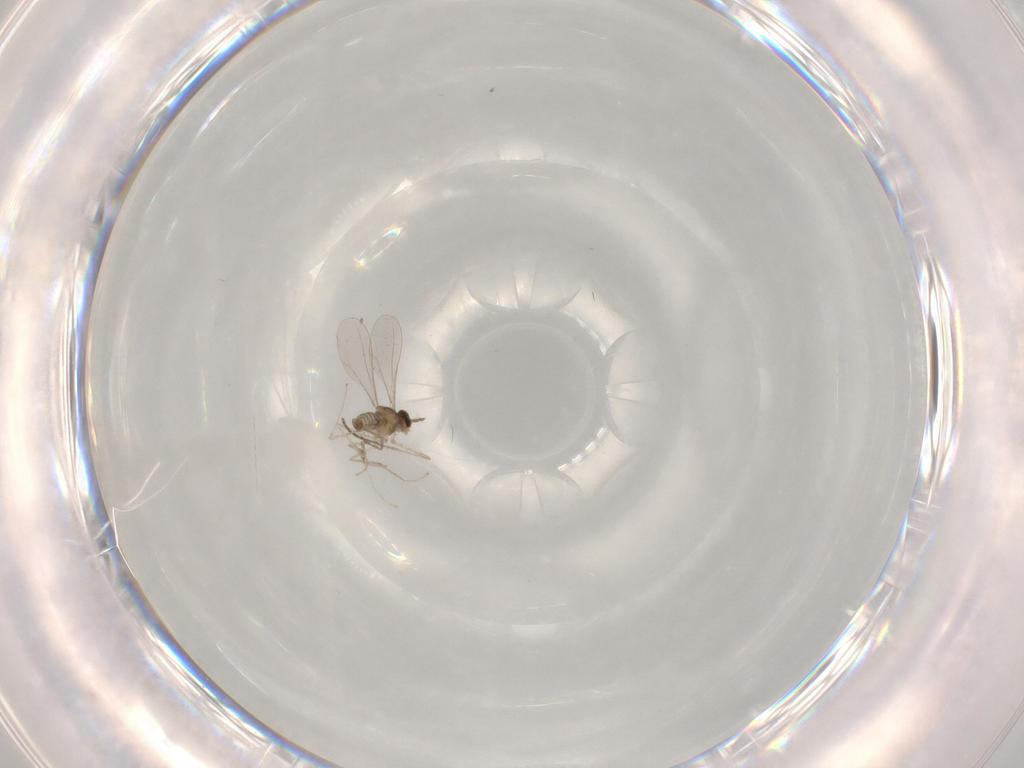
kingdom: Animalia
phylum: Arthropoda
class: Insecta
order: Diptera
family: Cecidomyiidae
